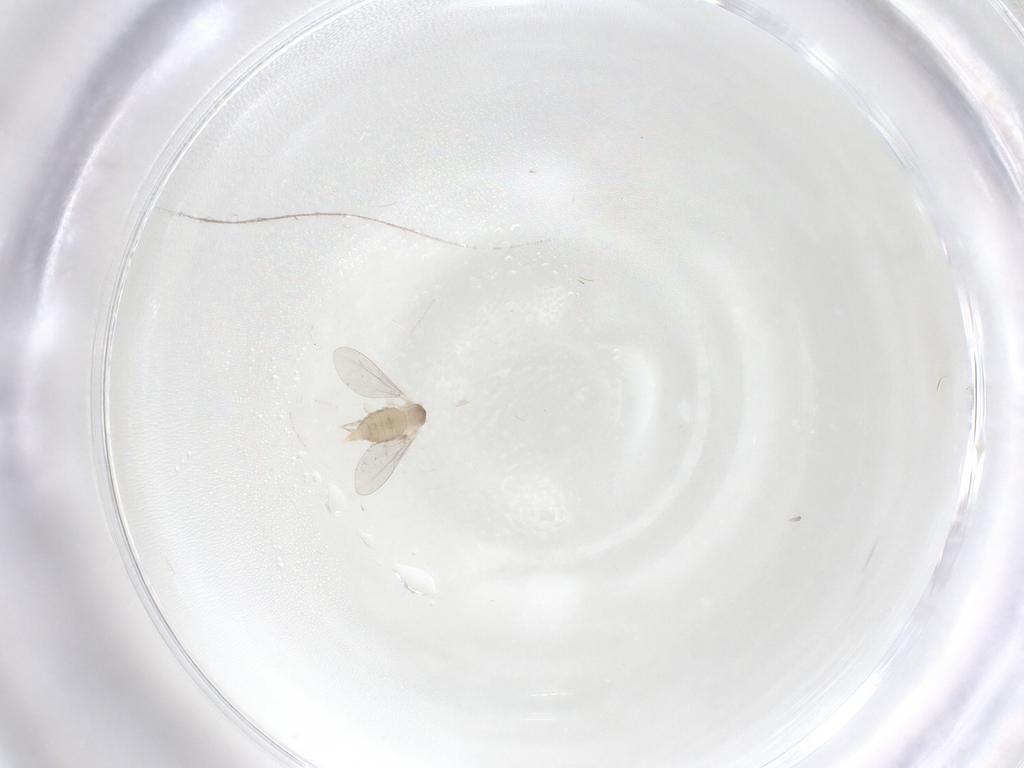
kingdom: Animalia
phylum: Arthropoda
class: Insecta
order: Diptera
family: Cecidomyiidae
